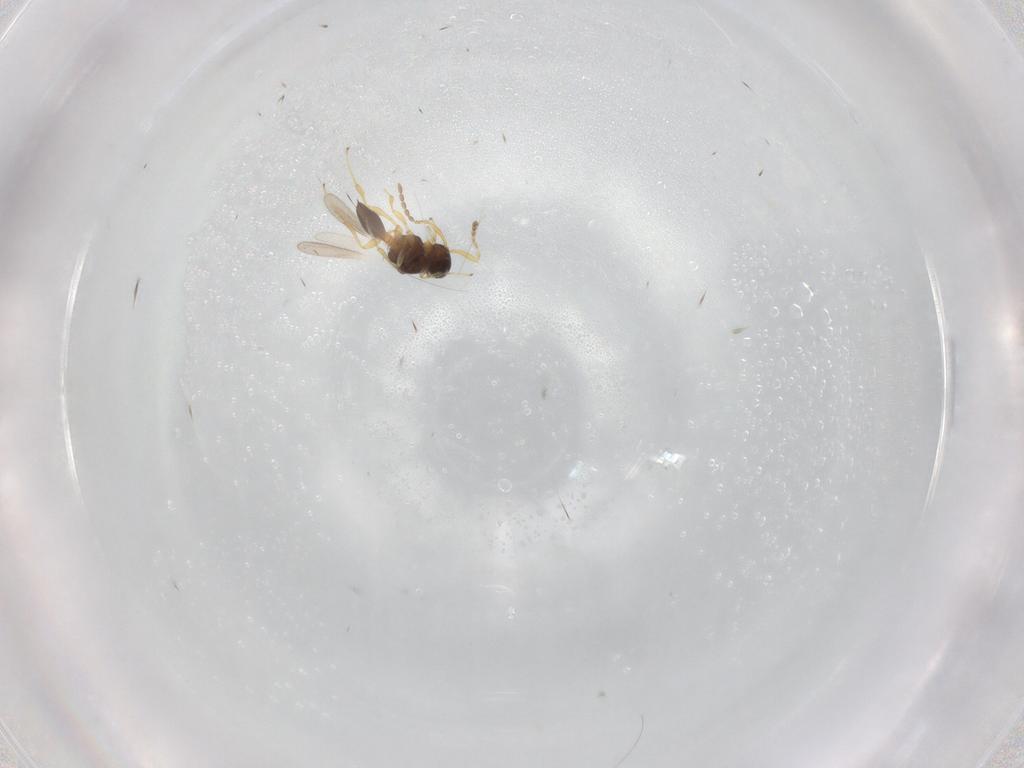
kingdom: Animalia
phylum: Arthropoda
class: Insecta
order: Hymenoptera
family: Platygastridae
